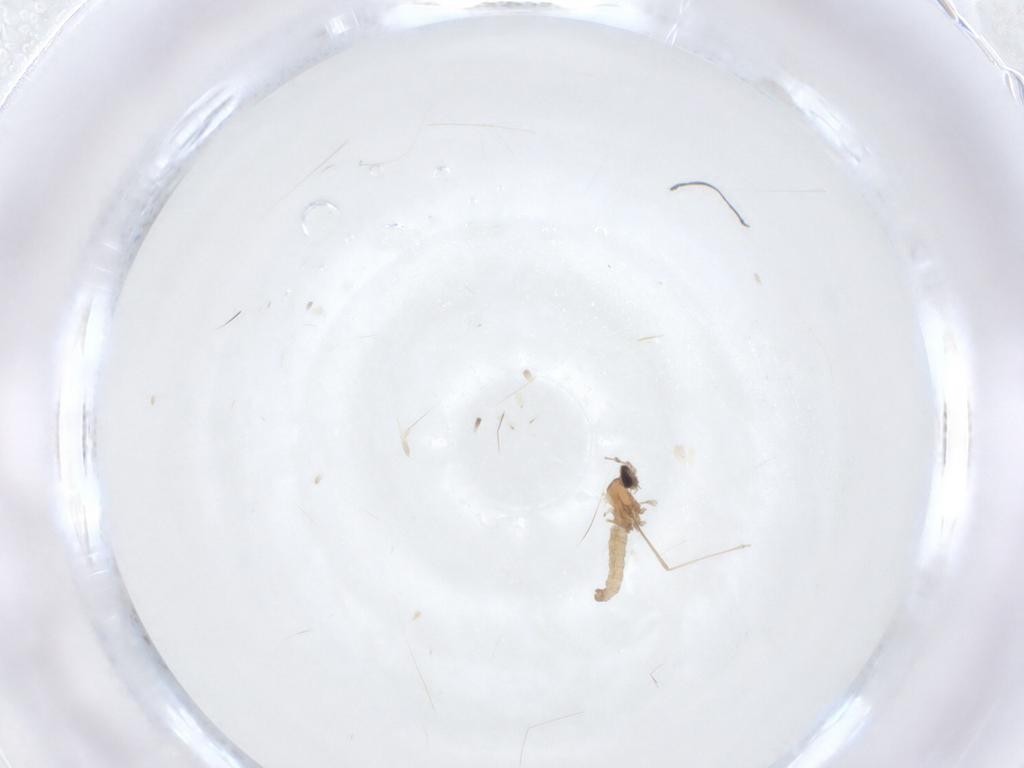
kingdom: Animalia
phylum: Arthropoda
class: Insecta
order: Diptera
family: Cecidomyiidae
